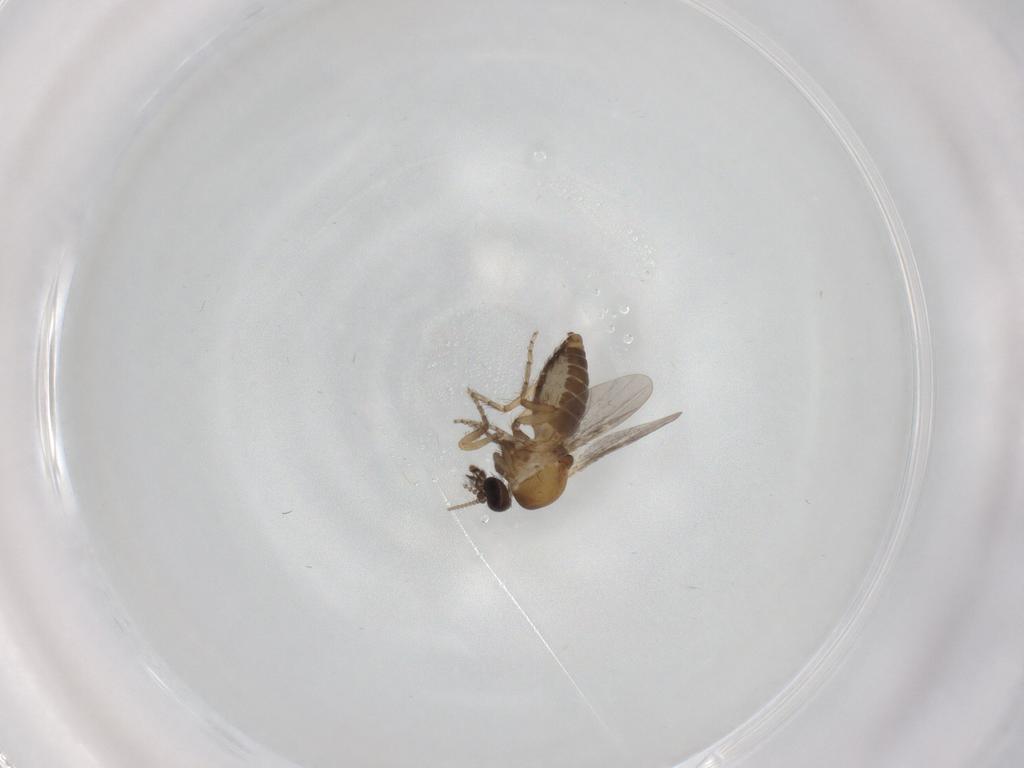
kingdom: Animalia
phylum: Arthropoda
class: Insecta
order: Diptera
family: Ceratopogonidae
